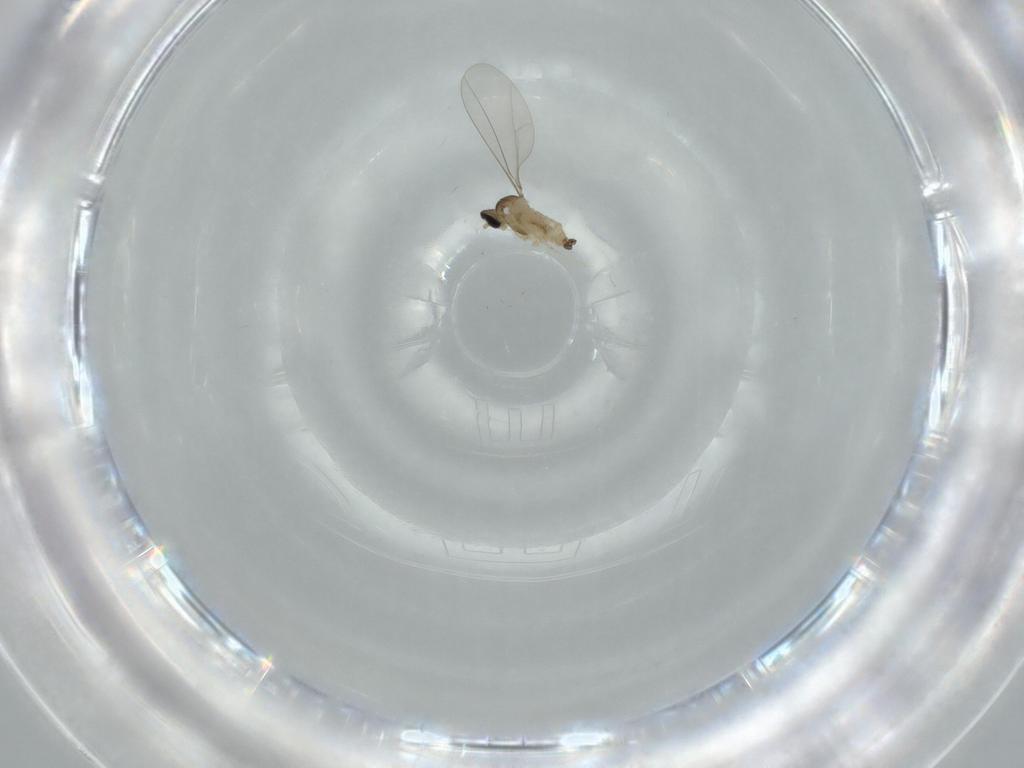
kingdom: Animalia
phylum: Arthropoda
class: Insecta
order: Diptera
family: Cecidomyiidae
